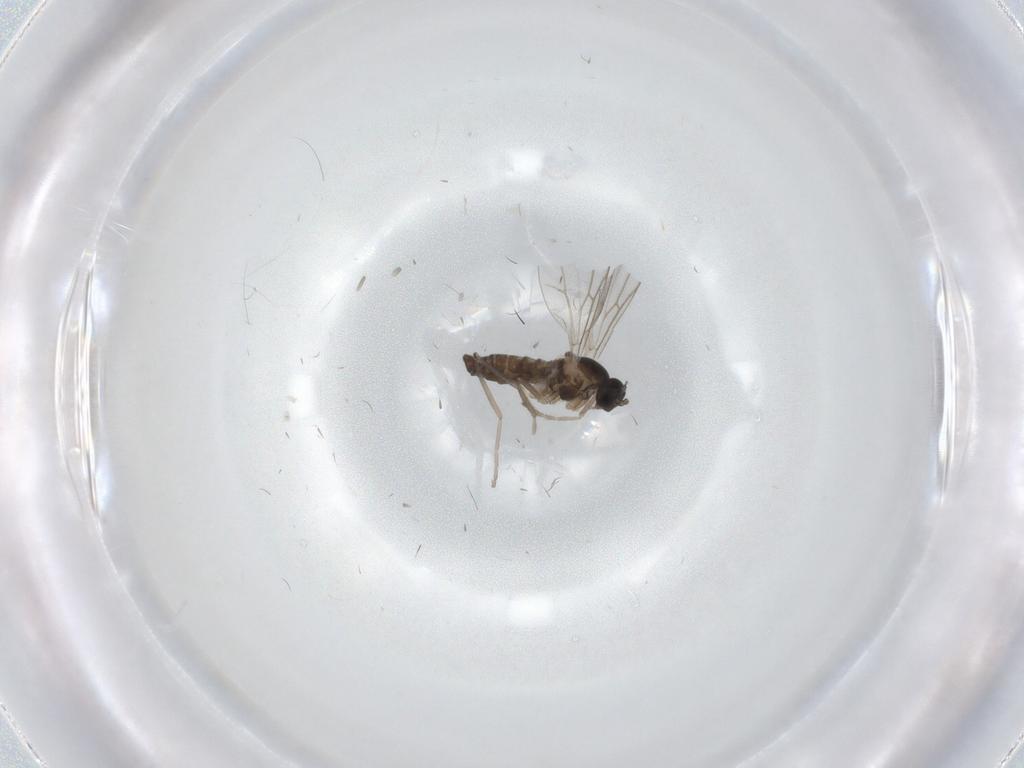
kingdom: Animalia
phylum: Arthropoda
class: Insecta
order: Diptera
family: Cecidomyiidae
